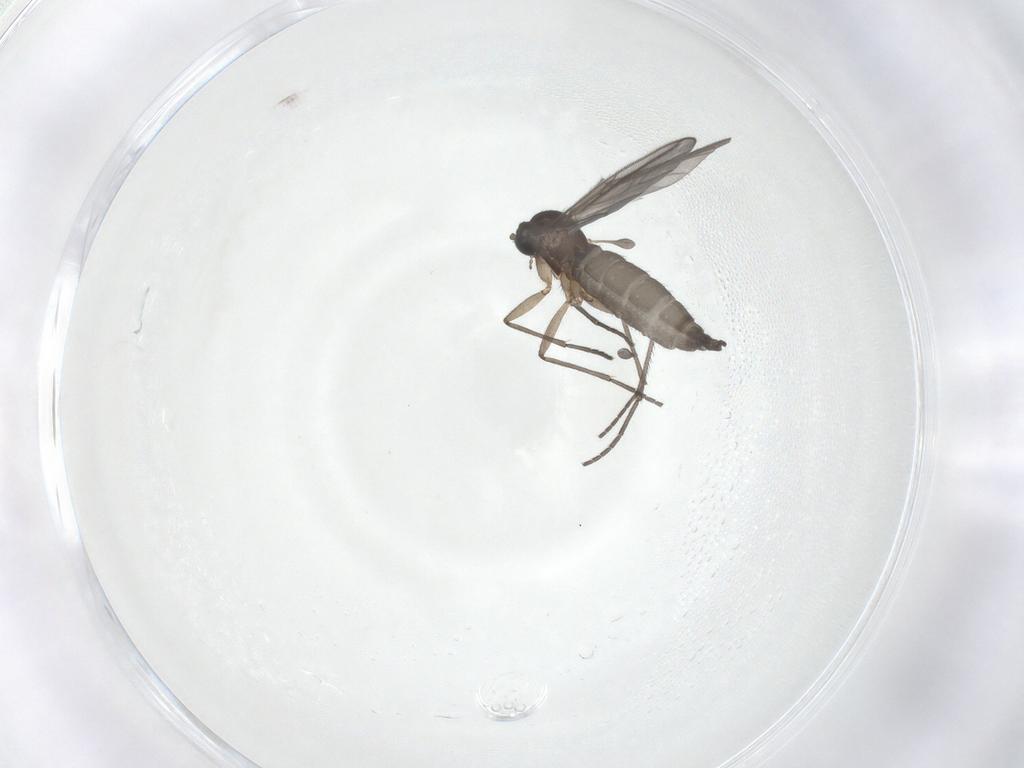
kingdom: Animalia
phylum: Arthropoda
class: Insecta
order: Diptera
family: Sciaridae
